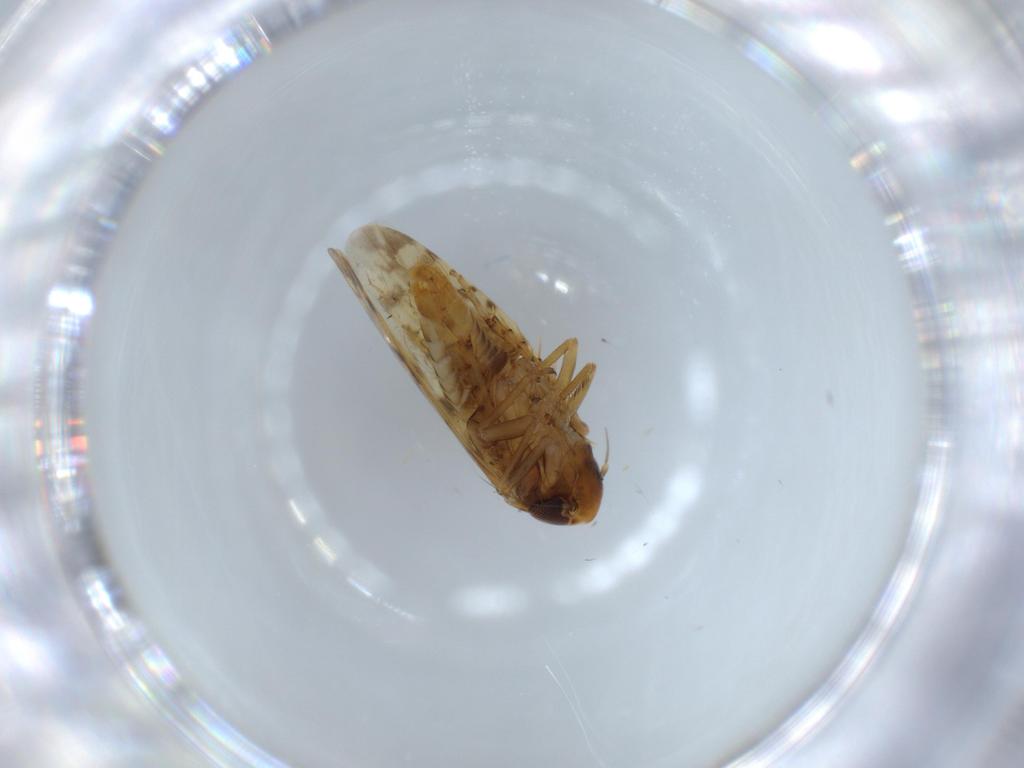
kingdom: Animalia
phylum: Arthropoda
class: Insecta
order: Hemiptera
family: Cicadellidae
